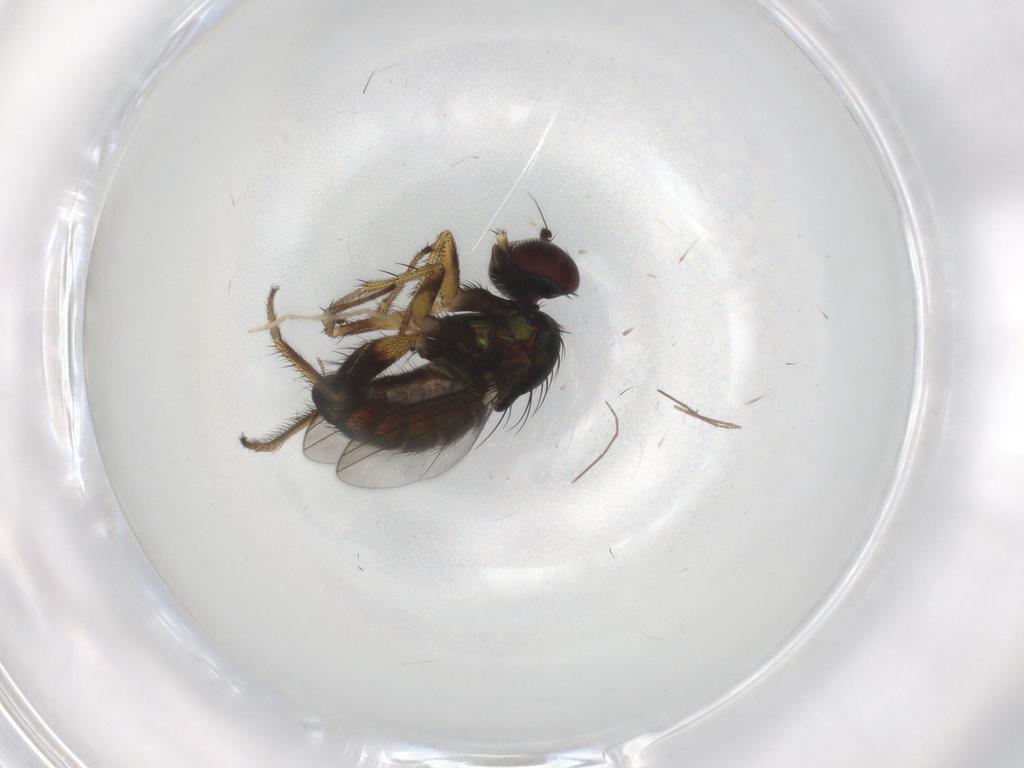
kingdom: Animalia
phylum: Arthropoda
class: Insecta
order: Diptera
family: Dolichopodidae
